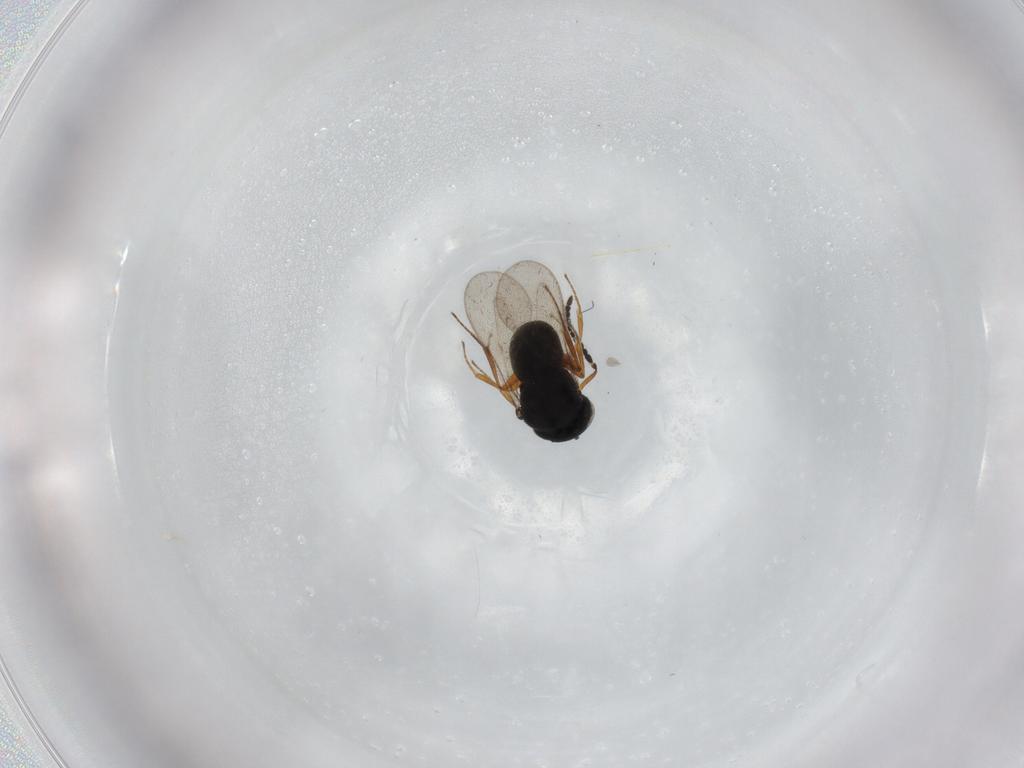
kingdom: Animalia
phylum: Arthropoda
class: Insecta
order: Hymenoptera
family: Scelionidae
